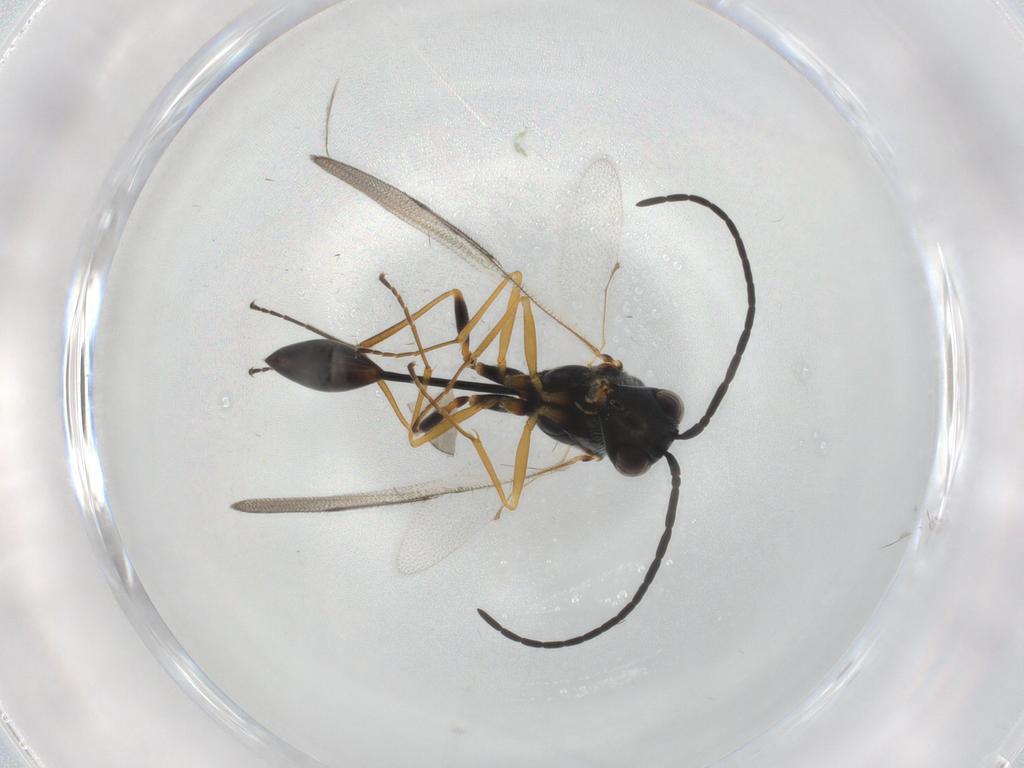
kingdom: Animalia
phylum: Arthropoda
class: Insecta
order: Hymenoptera
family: Figitidae
